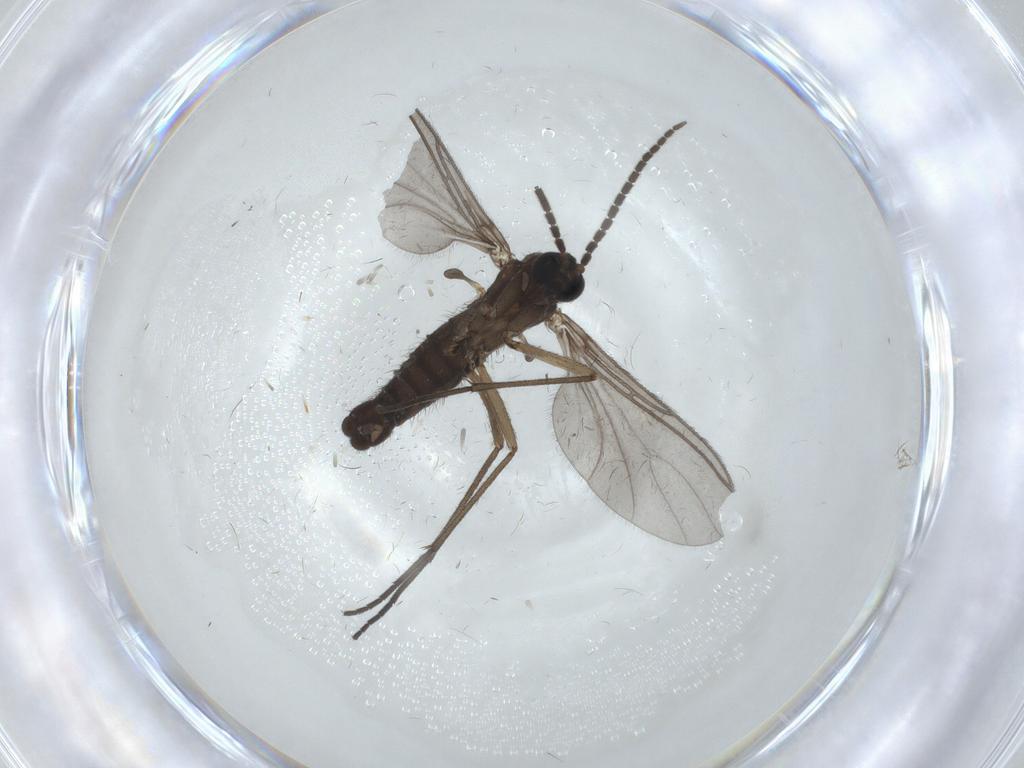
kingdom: Animalia
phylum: Arthropoda
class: Insecta
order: Diptera
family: Sciaridae
